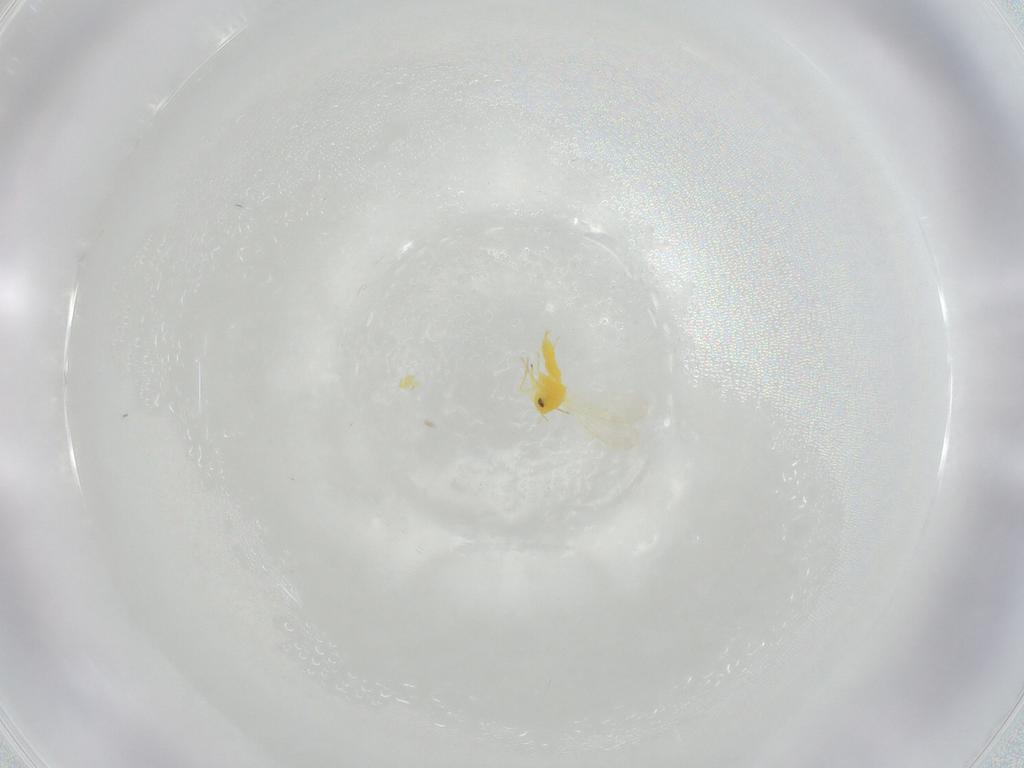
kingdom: Animalia
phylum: Arthropoda
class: Insecta
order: Hemiptera
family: Aleyrodidae
